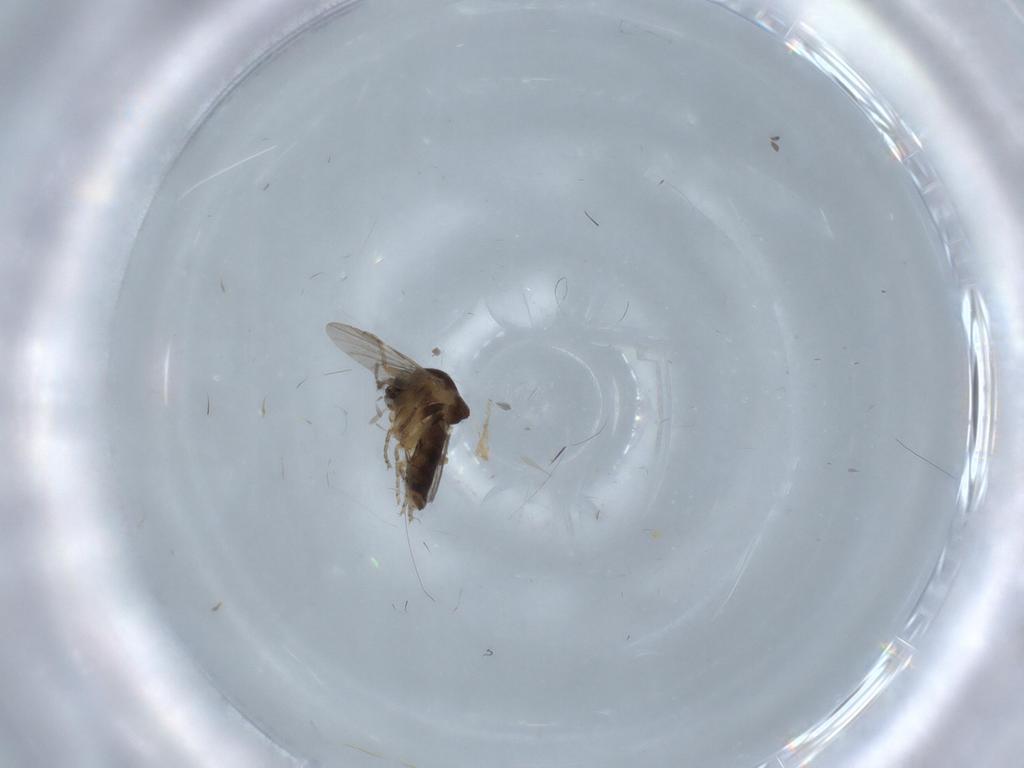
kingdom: Animalia
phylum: Arthropoda
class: Insecta
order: Diptera
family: Ceratopogonidae
